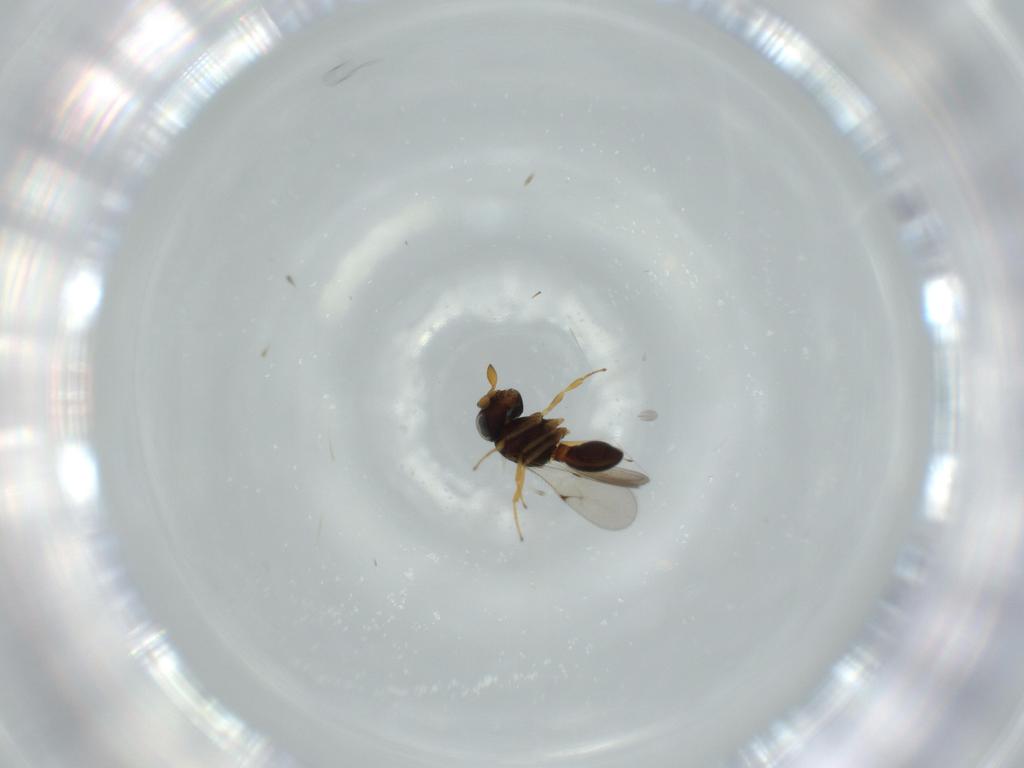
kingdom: Animalia
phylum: Arthropoda
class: Insecta
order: Hymenoptera
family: Scelionidae
